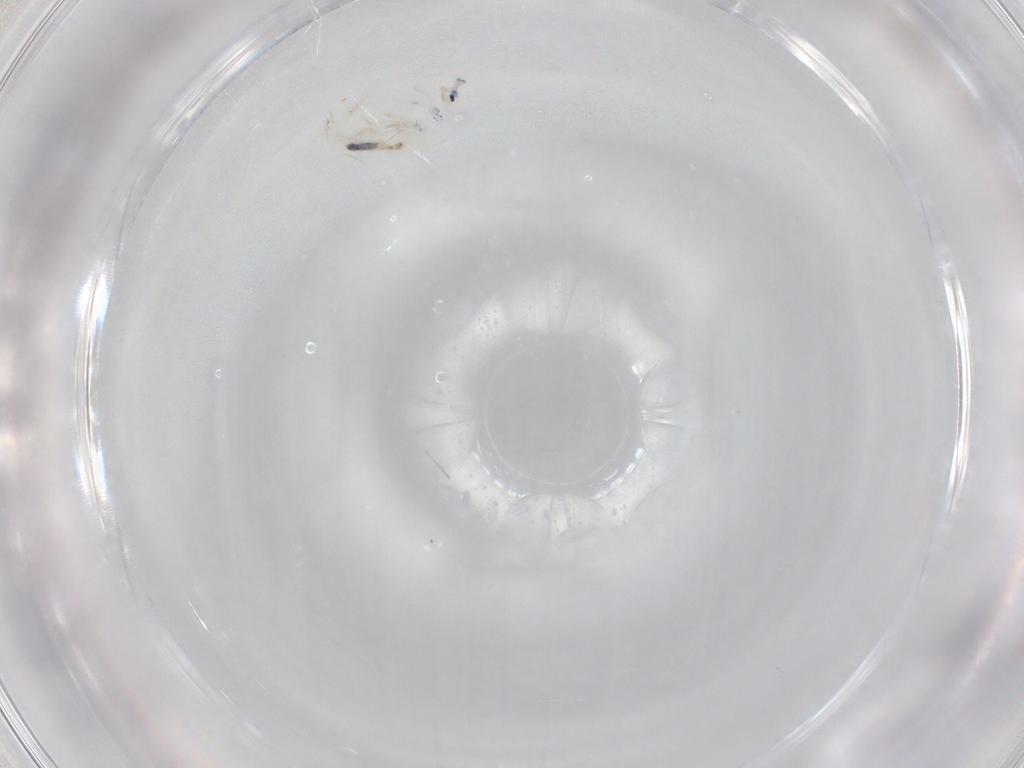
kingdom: Animalia
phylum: Arthropoda
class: Collembola
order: Entomobryomorpha
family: Entomobryidae
